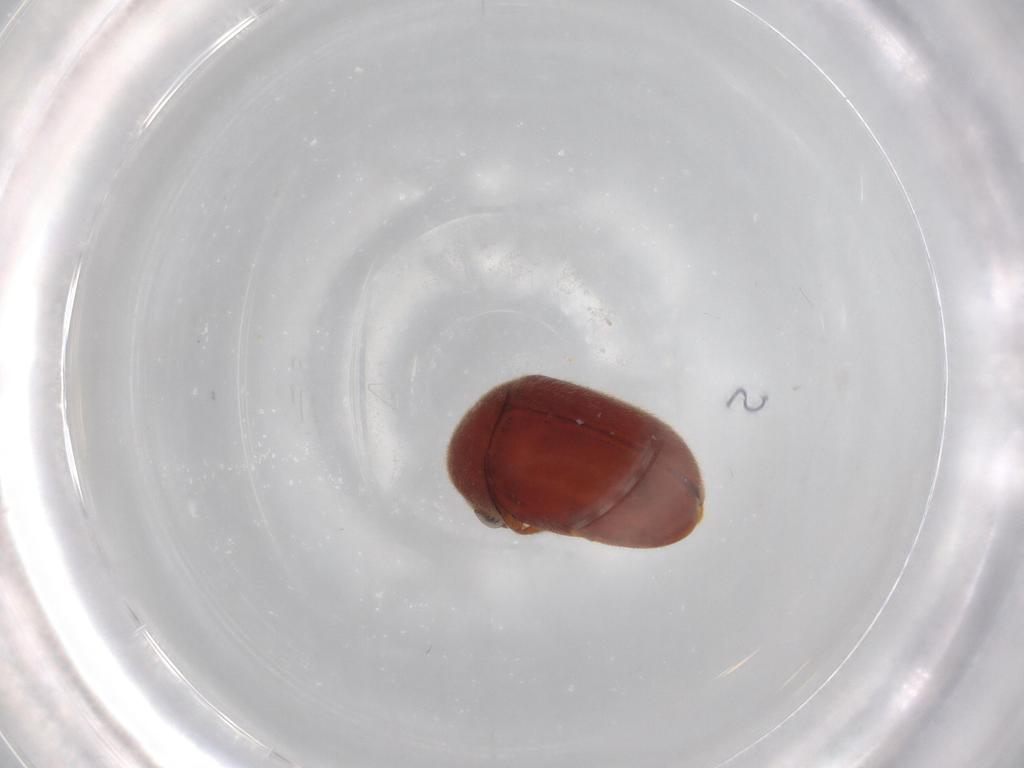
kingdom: Animalia
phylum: Arthropoda
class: Insecta
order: Coleoptera
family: Anobiidae
